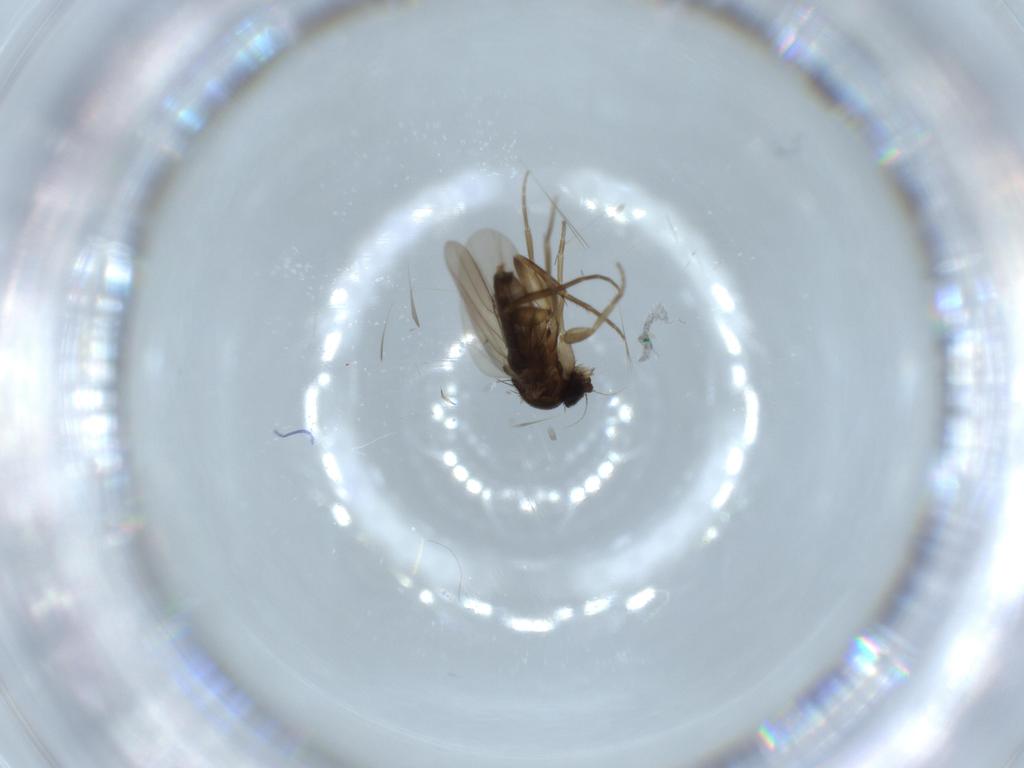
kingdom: Animalia
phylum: Arthropoda
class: Insecta
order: Diptera
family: Phoridae
